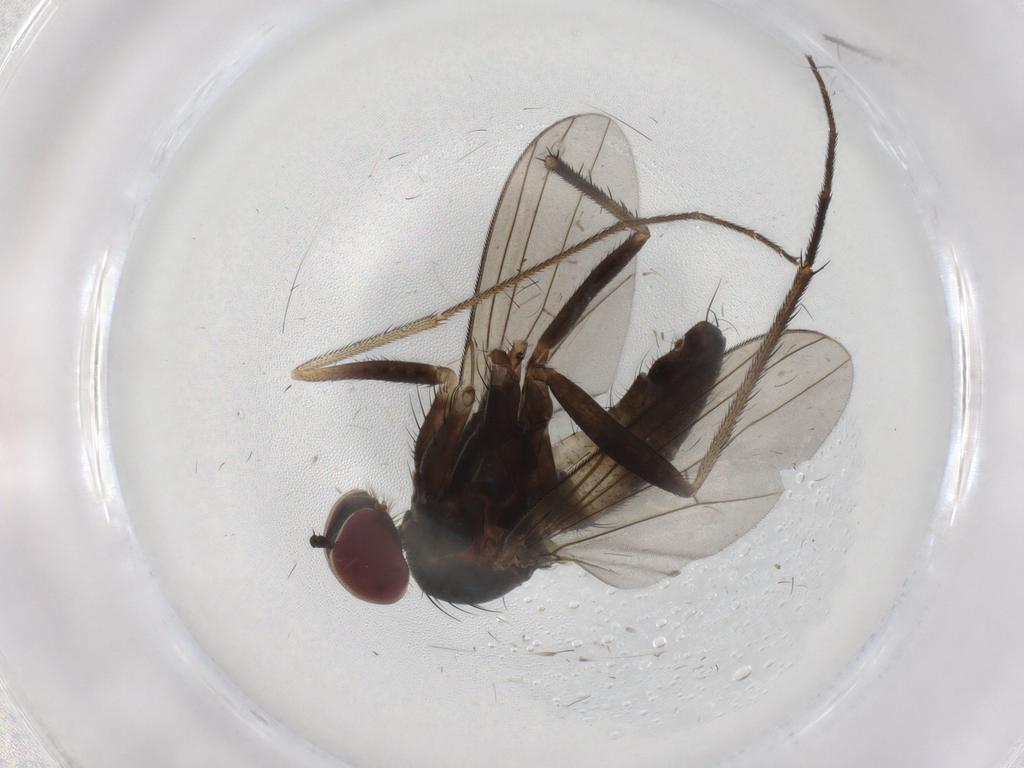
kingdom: Animalia
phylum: Arthropoda
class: Insecta
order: Diptera
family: Dolichopodidae
